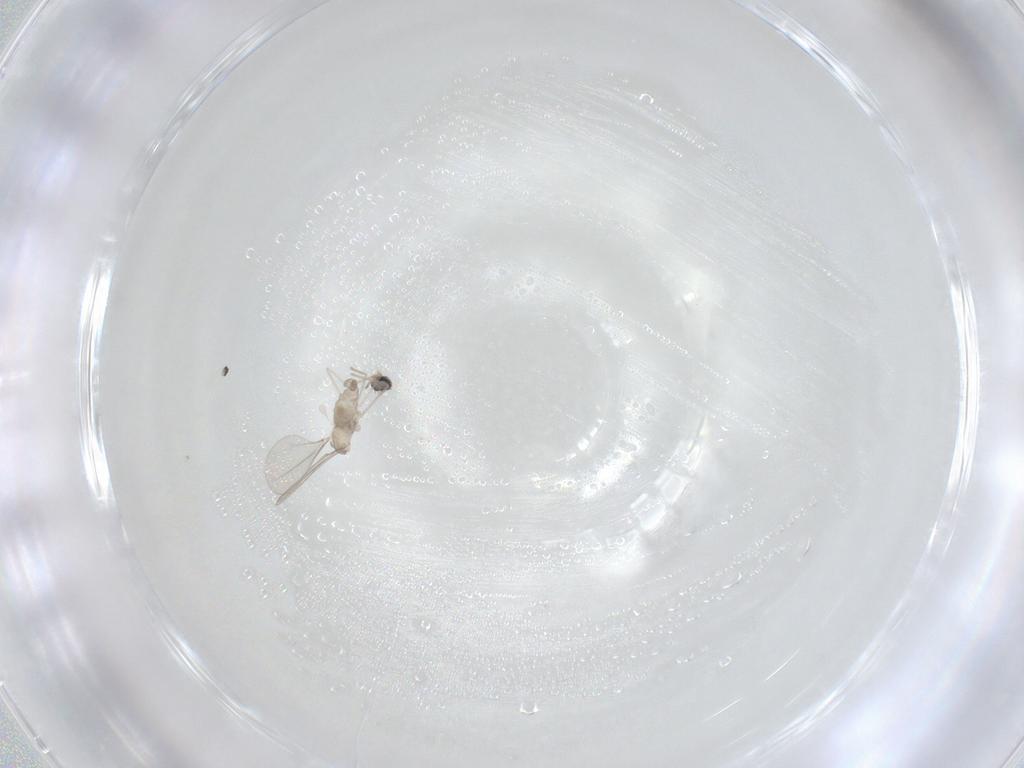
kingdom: Animalia
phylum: Arthropoda
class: Insecta
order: Diptera
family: Cecidomyiidae
